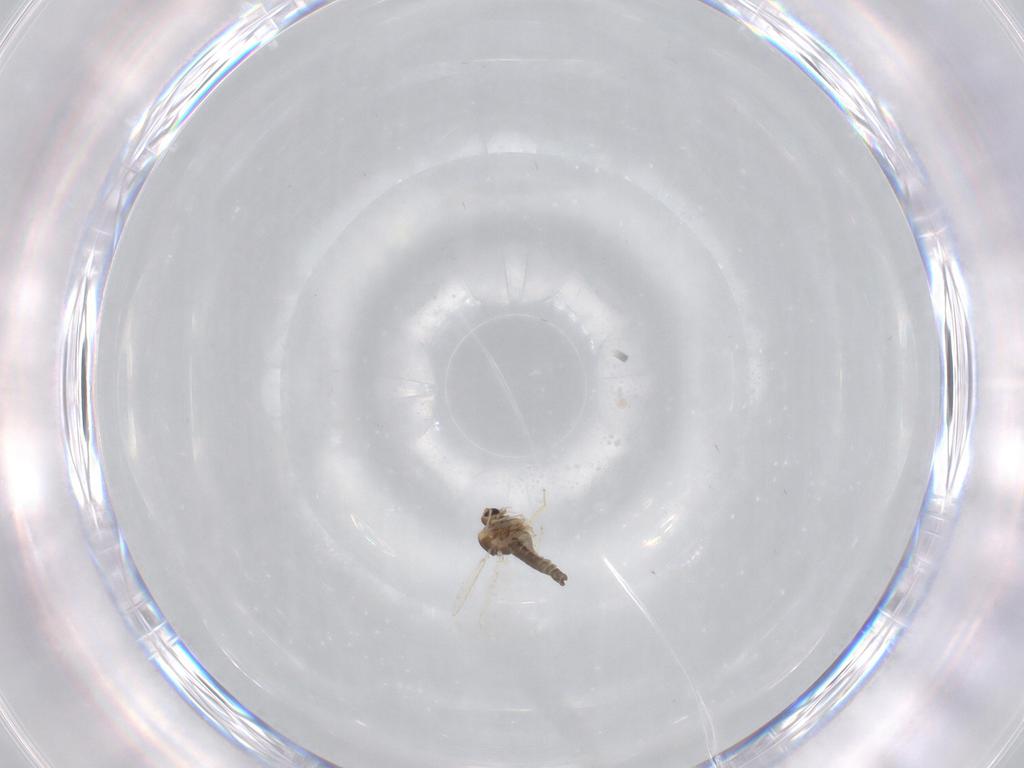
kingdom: Animalia
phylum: Arthropoda
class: Insecta
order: Diptera
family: Chironomidae
